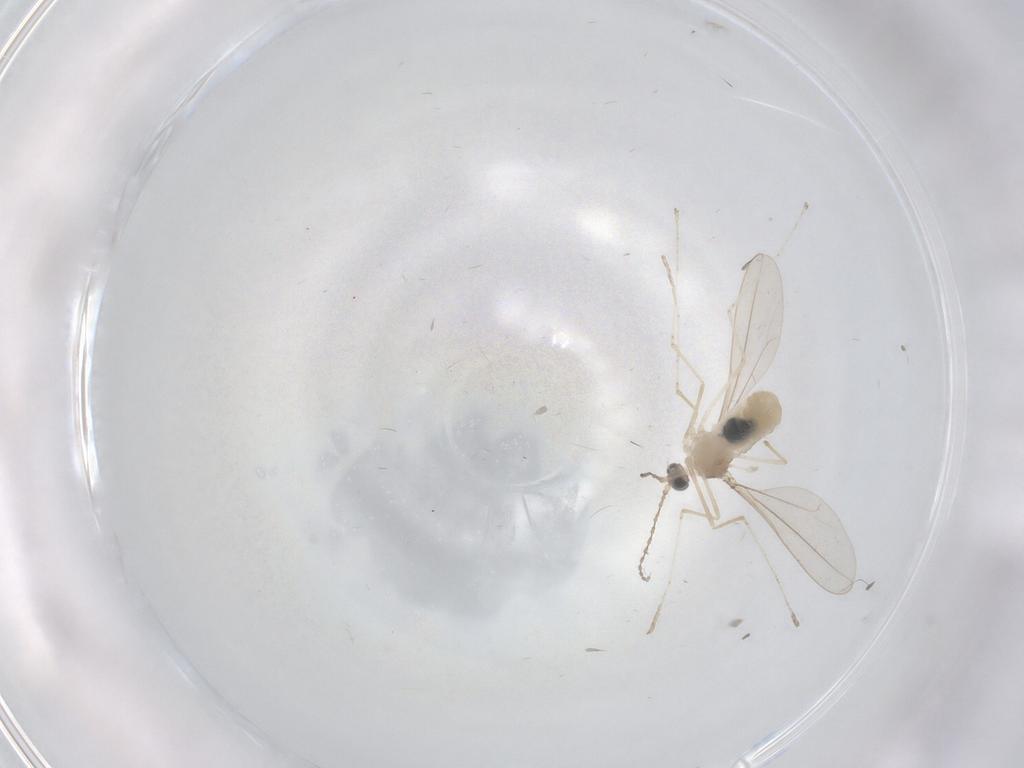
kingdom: Animalia
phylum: Arthropoda
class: Insecta
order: Diptera
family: Cecidomyiidae
